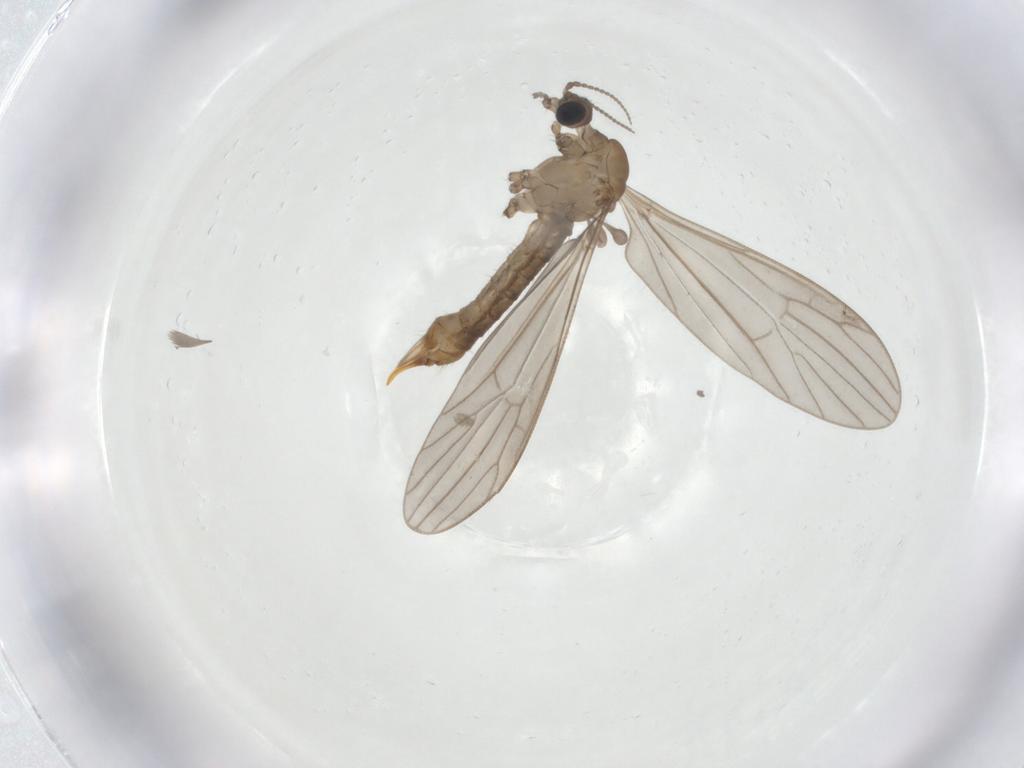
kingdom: Animalia
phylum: Arthropoda
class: Insecta
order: Diptera
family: Limoniidae
